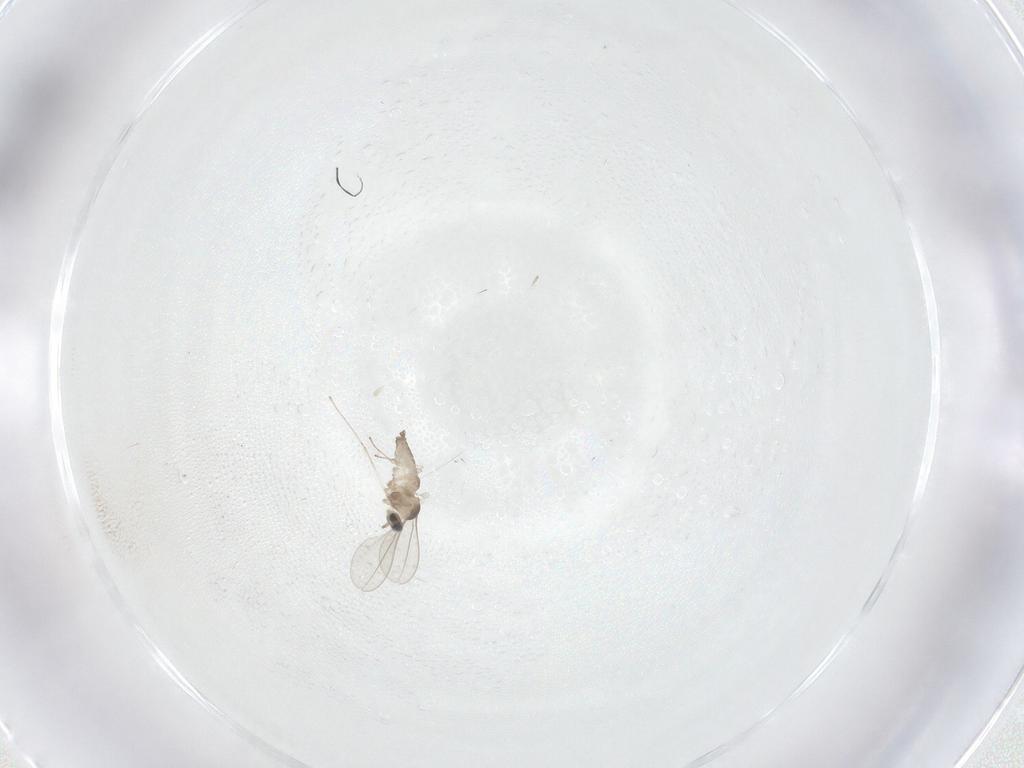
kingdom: Animalia
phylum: Arthropoda
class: Insecta
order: Diptera
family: Cecidomyiidae
